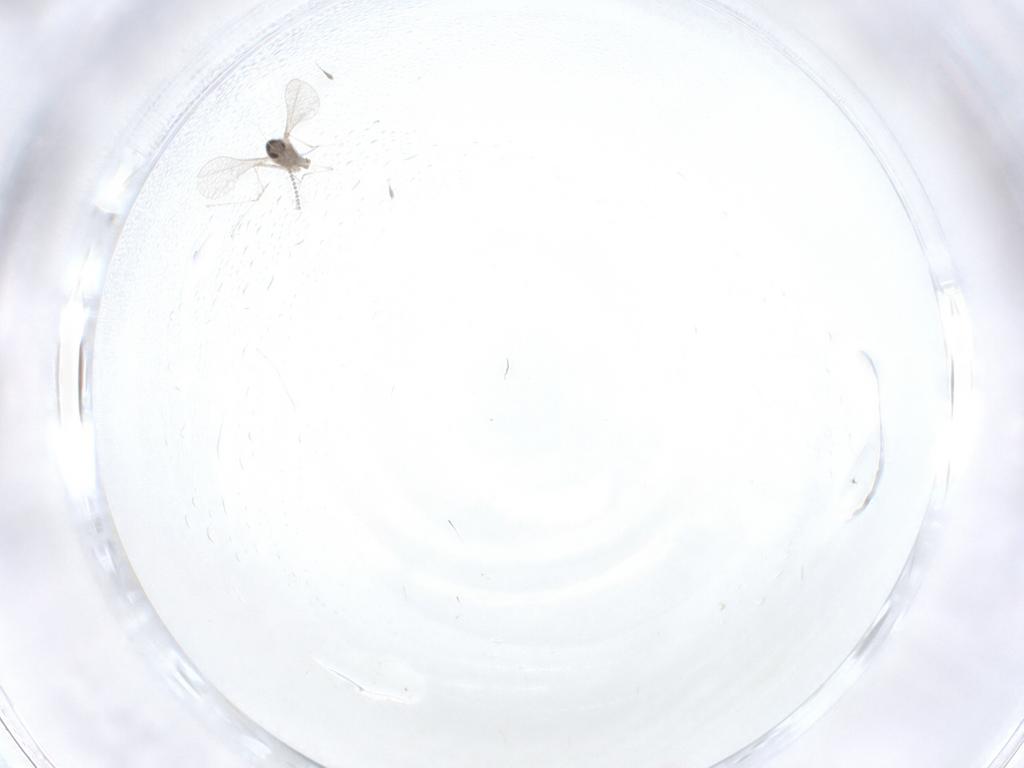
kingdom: Animalia
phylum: Arthropoda
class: Insecta
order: Diptera
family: Cecidomyiidae
